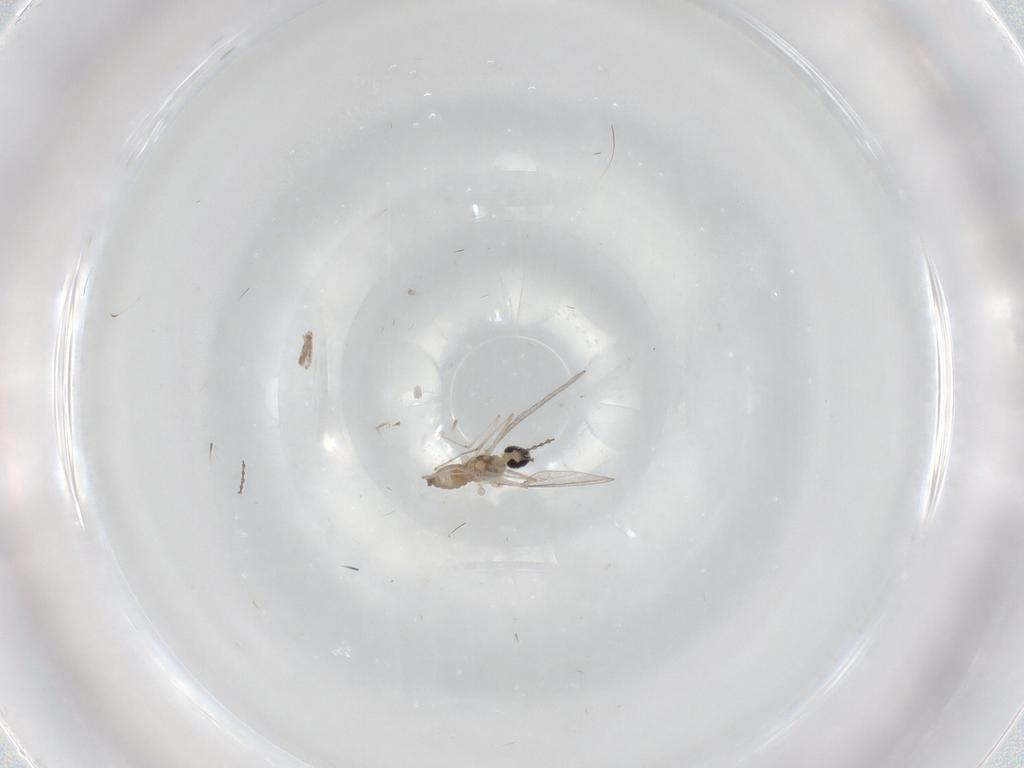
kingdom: Animalia
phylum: Arthropoda
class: Insecta
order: Diptera
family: Cecidomyiidae
